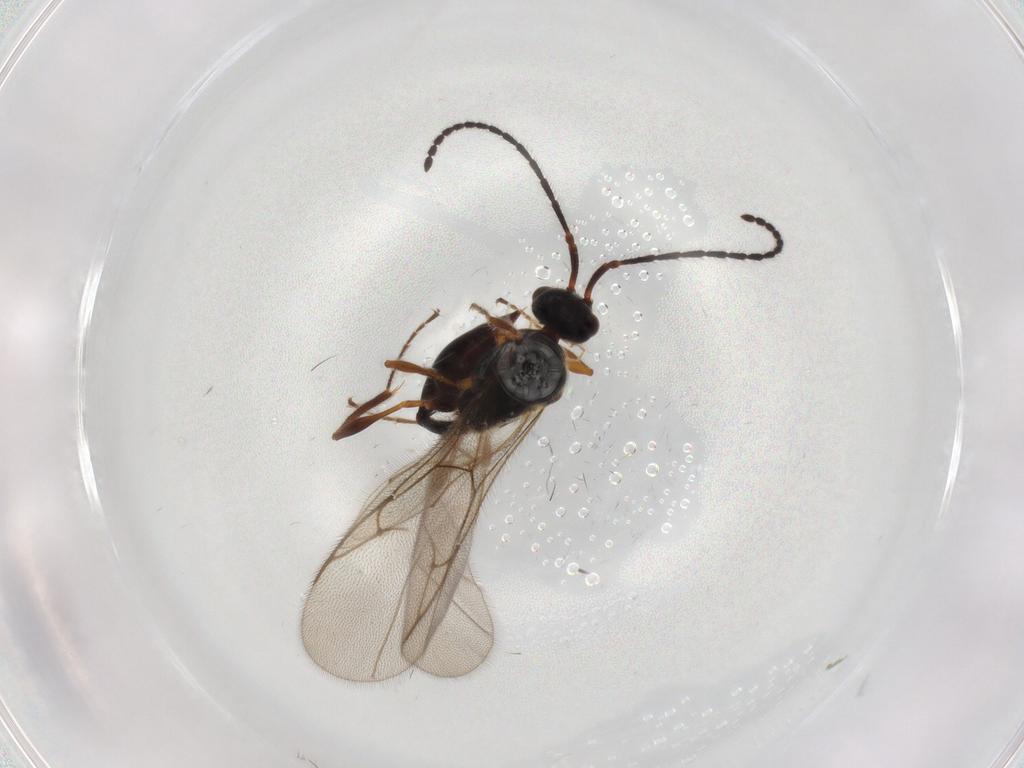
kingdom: Animalia
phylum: Arthropoda
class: Insecta
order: Hymenoptera
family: Diapriidae
